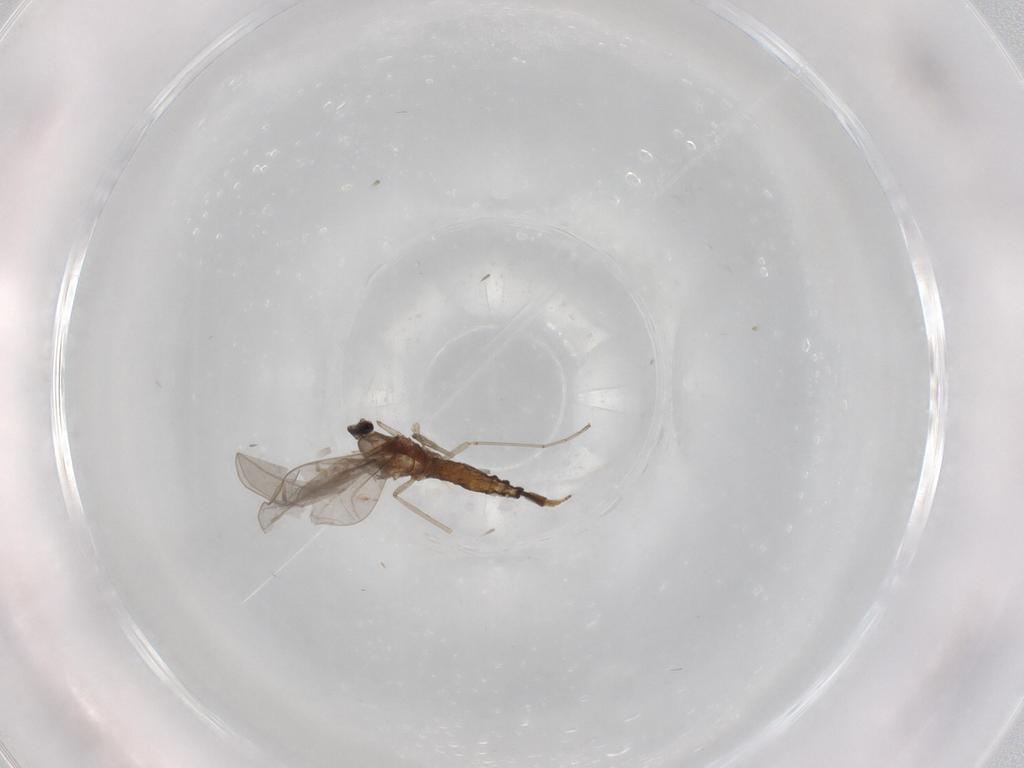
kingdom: Animalia
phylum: Arthropoda
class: Insecta
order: Diptera
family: Cecidomyiidae
